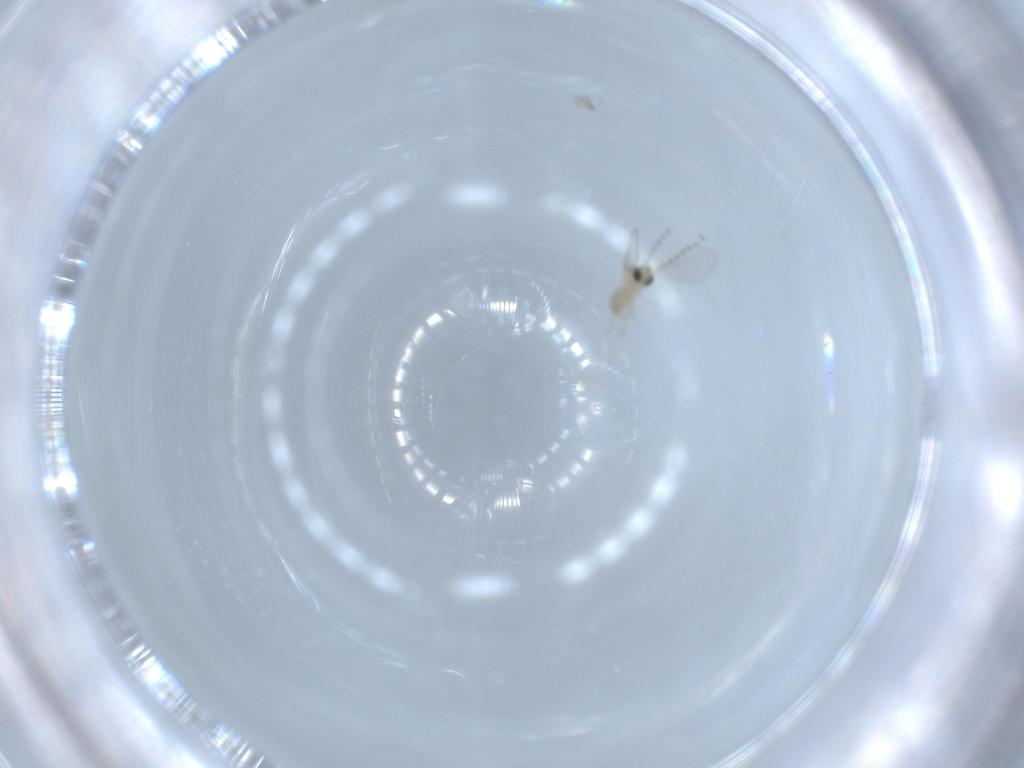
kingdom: Animalia
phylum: Arthropoda
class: Insecta
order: Diptera
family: Cecidomyiidae
